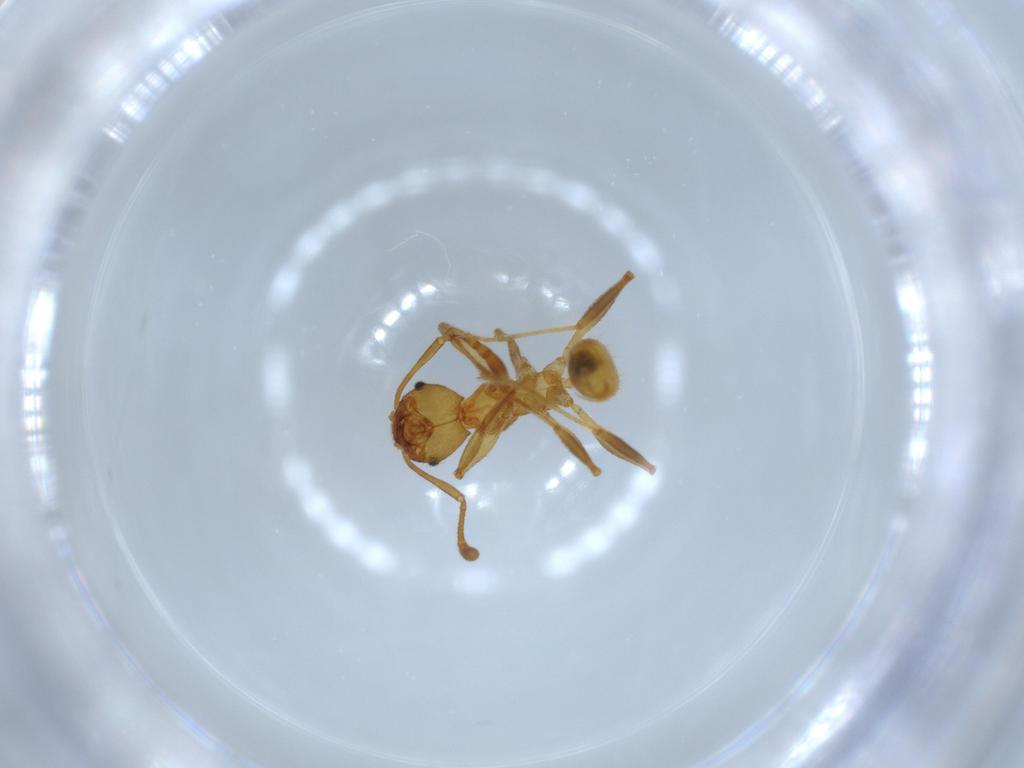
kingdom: Animalia
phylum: Arthropoda
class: Insecta
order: Hymenoptera
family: Formicidae
